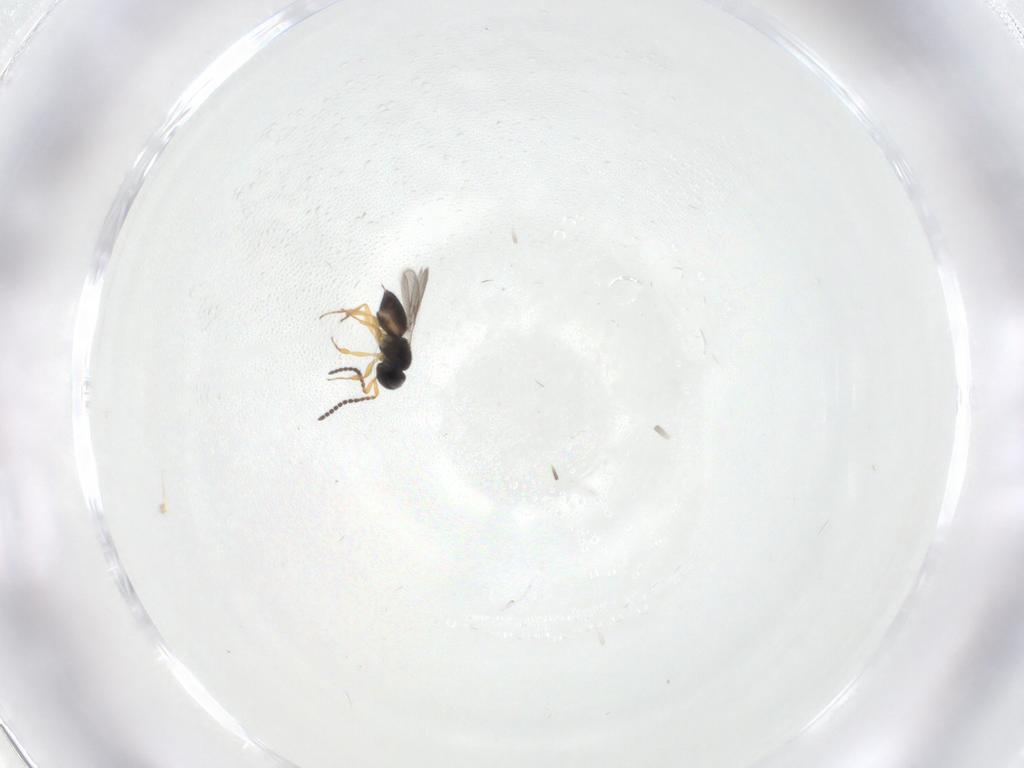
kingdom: Animalia
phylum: Arthropoda
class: Insecta
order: Hymenoptera
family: Scelionidae
